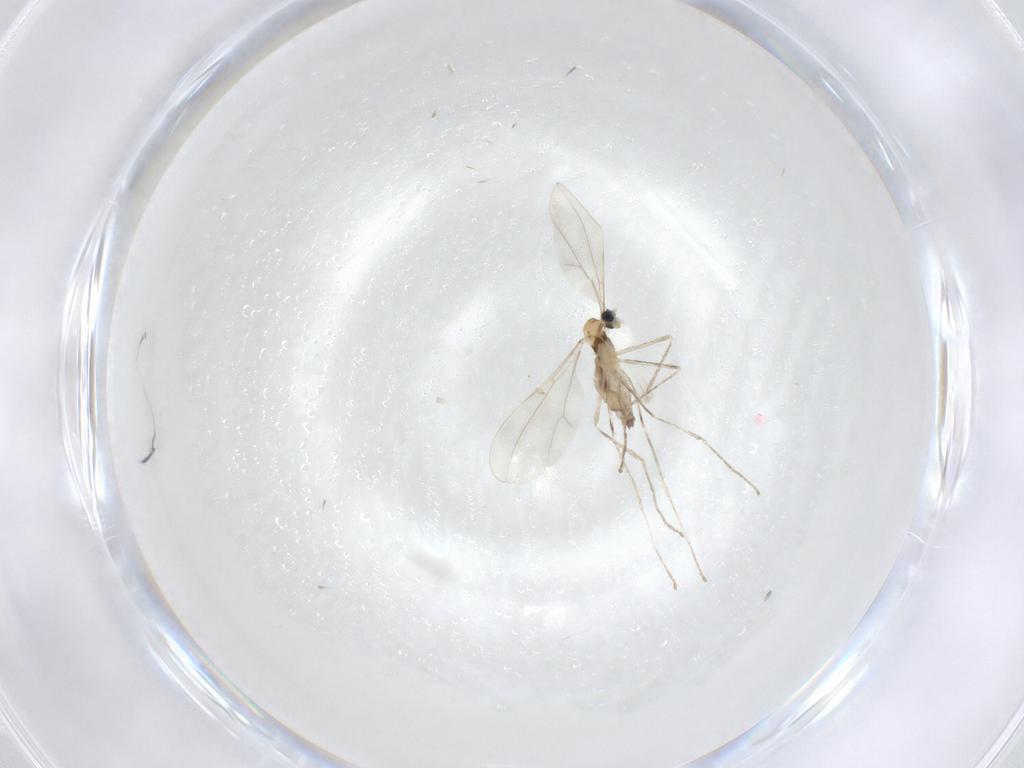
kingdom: Animalia
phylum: Arthropoda
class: Insecta
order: Diptera
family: Cecidomyiidae
